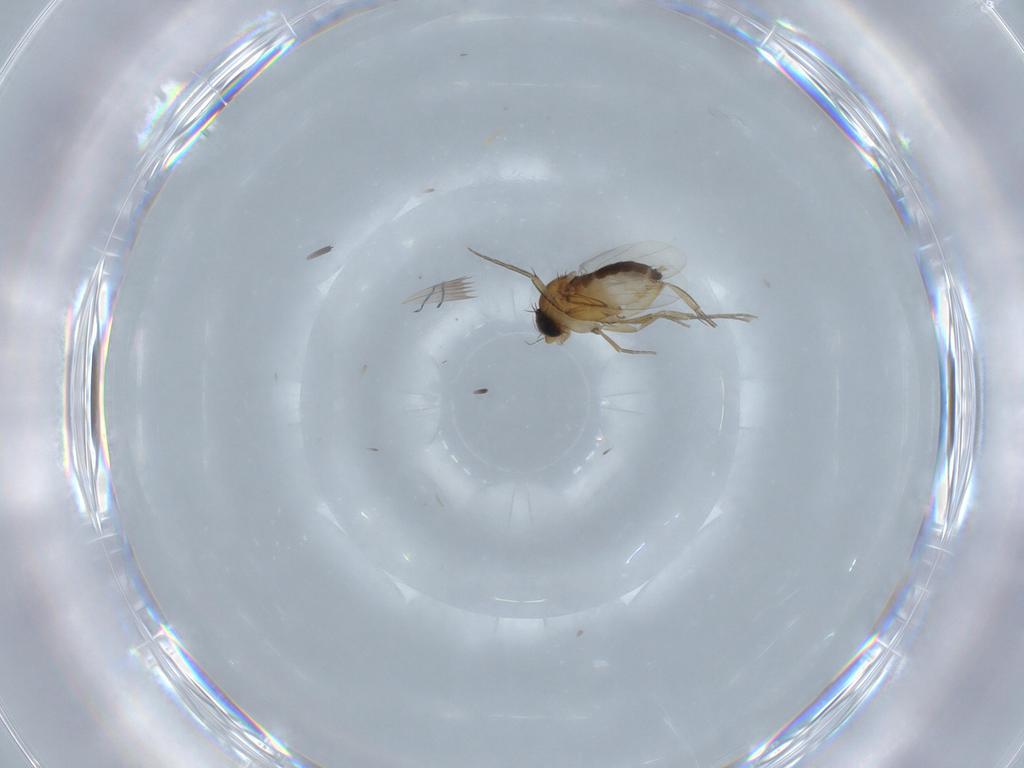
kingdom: Animalia
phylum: Arthropoda
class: Insecta
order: Diptera
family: Phoridae
